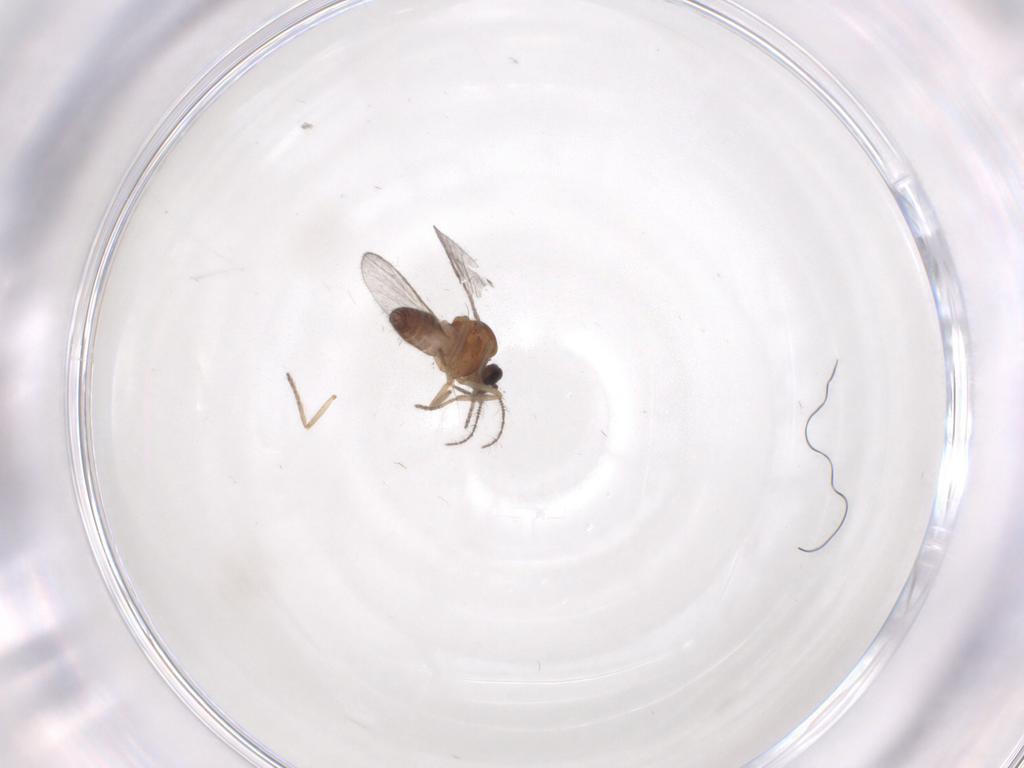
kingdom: Animalia
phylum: Arthropoda
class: Insecta
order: Diptera
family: Ceratopogonidae
